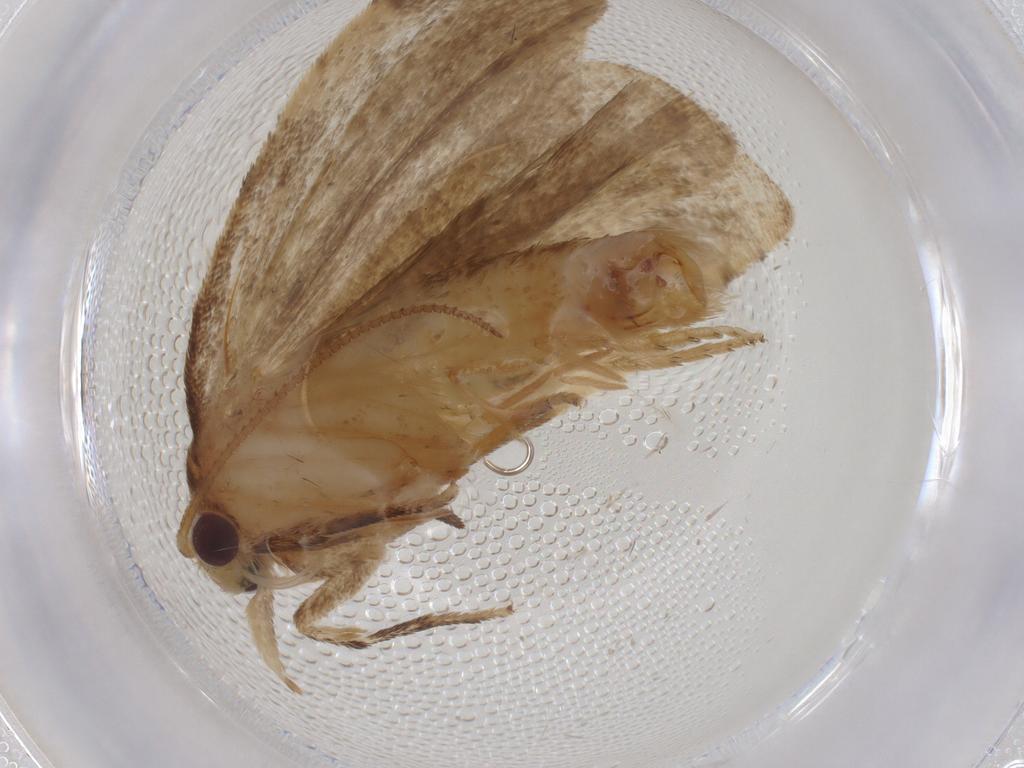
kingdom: Animalia
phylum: Arthropoda
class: Insecta
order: Lepidoptera
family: Tortricidae
